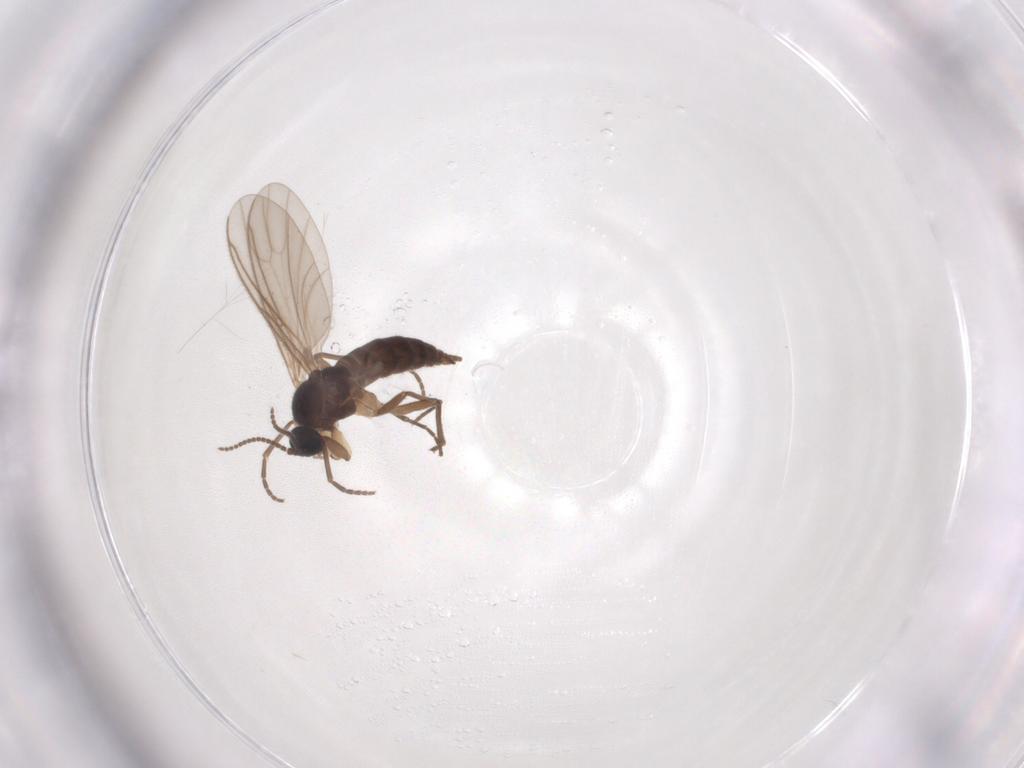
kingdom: Animalia
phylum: Arthropoda
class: Insecta
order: Diptera
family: Sciaridae
